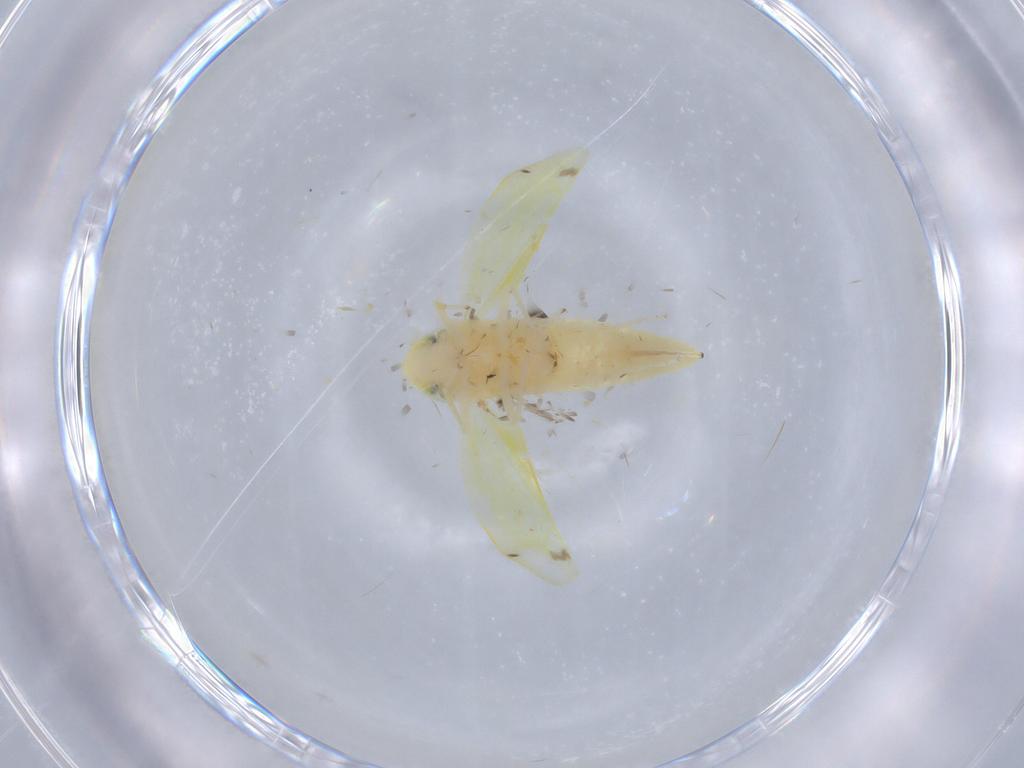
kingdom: Animalia
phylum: Arthropoda
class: Insecta
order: Hemiptera
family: Cicadellidae
